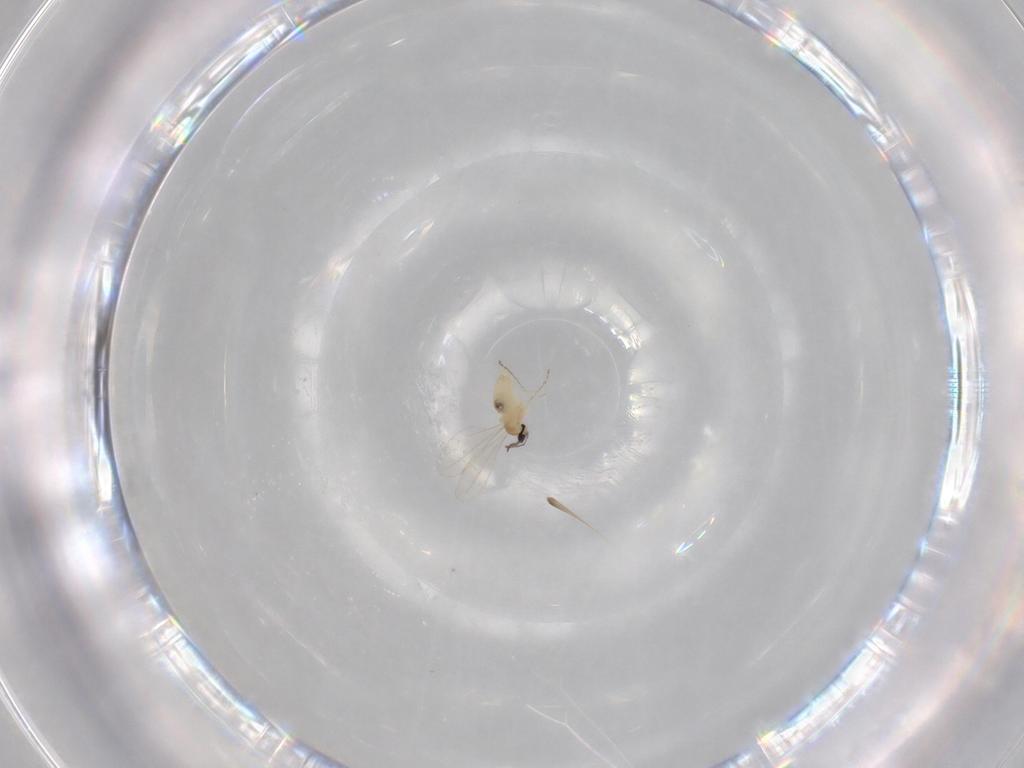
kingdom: Animalia
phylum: Arthropoda
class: Insecta
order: Diptera
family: Cecidomyiidae
